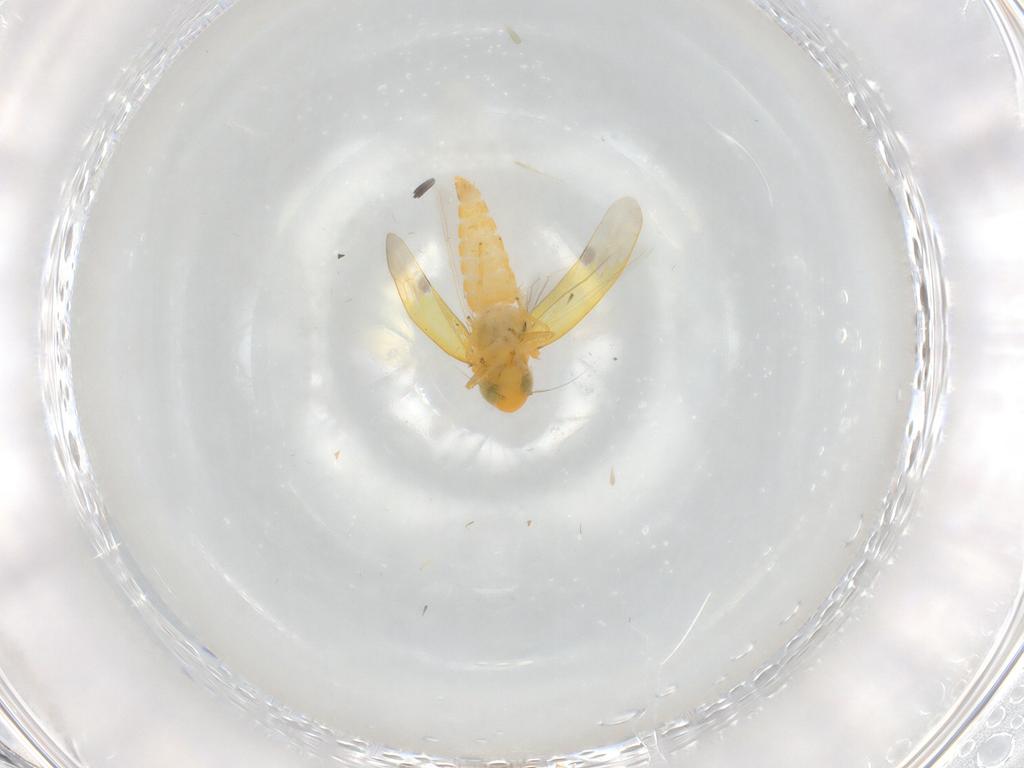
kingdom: Animalia
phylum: Arthropoda
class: Insecta
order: Hemiptera
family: Cicadellidae
